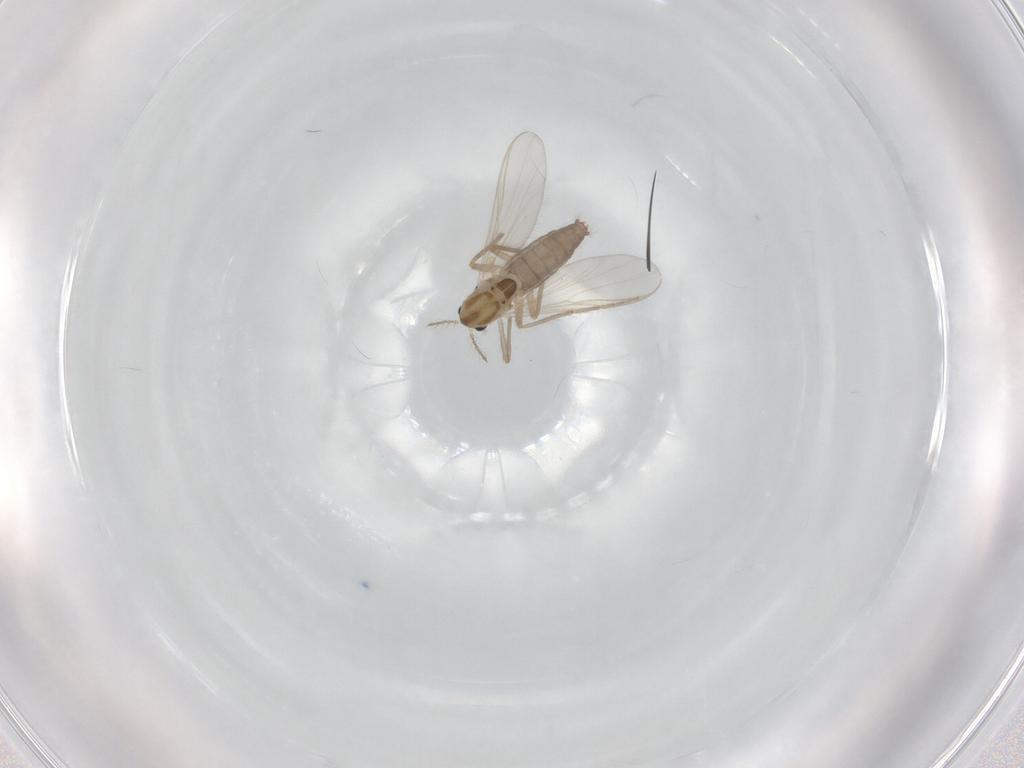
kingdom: Animalia
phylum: Arthropoda
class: Insecta
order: Diptera
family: Chironomidae
